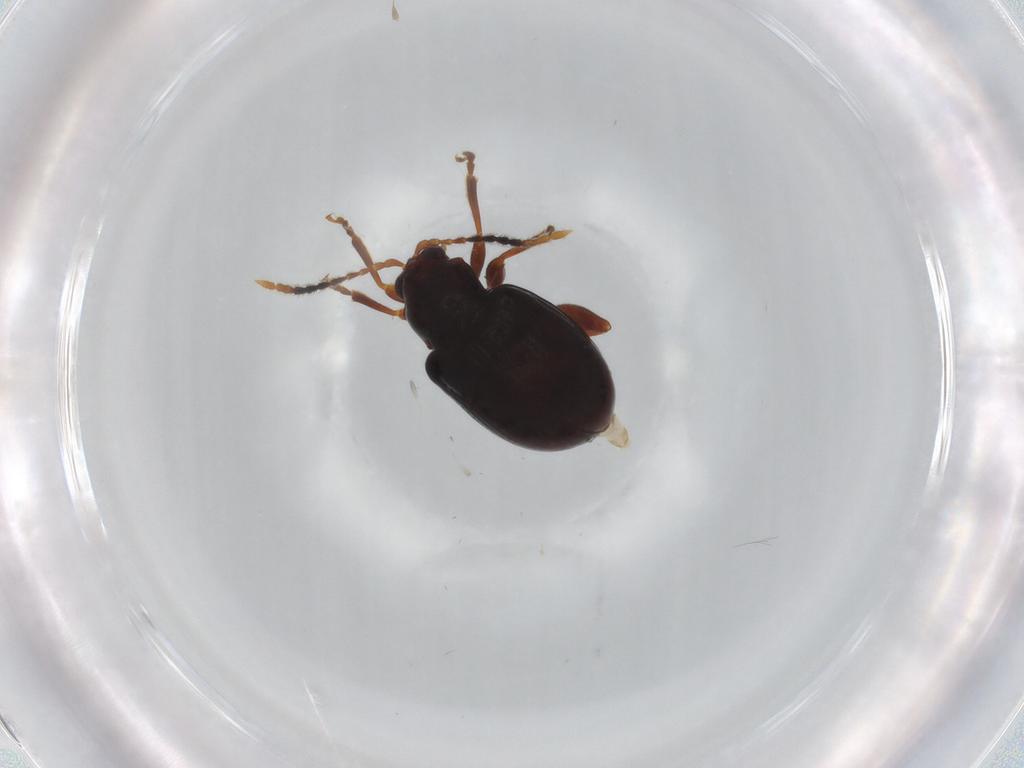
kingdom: Animalia
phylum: Arthropoda
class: Insecta
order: Coleoptera
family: Chrysomelidae
